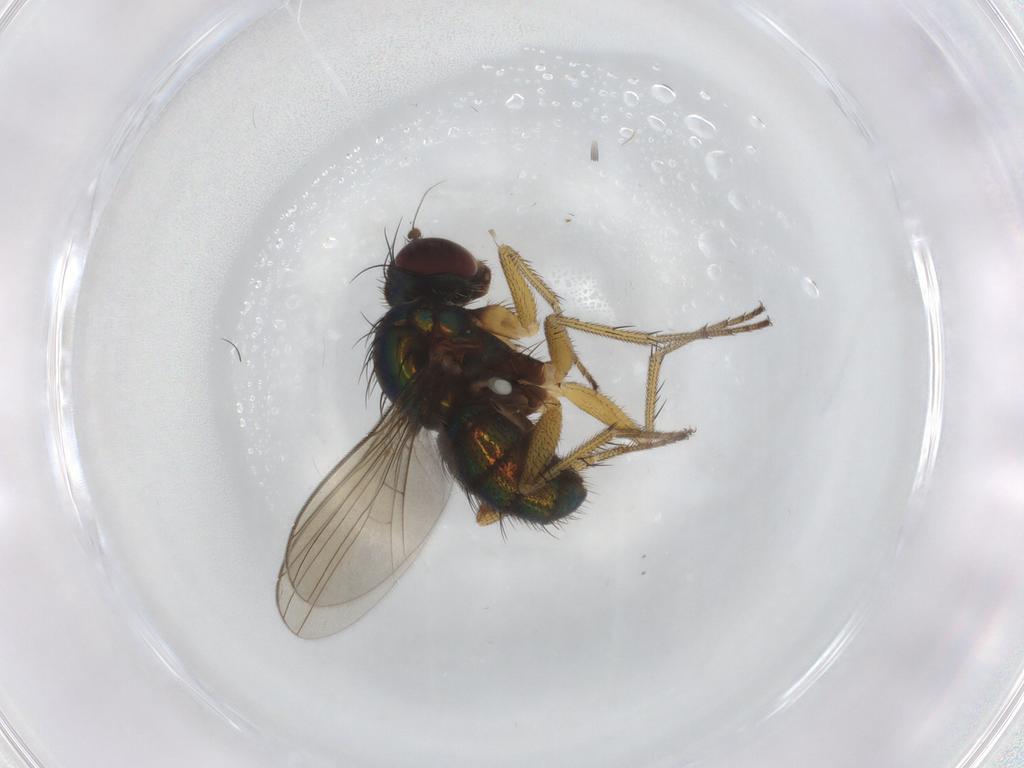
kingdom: Animalia
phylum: Arthropoda
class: Insecta
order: Diptera
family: Dolichopodidae
